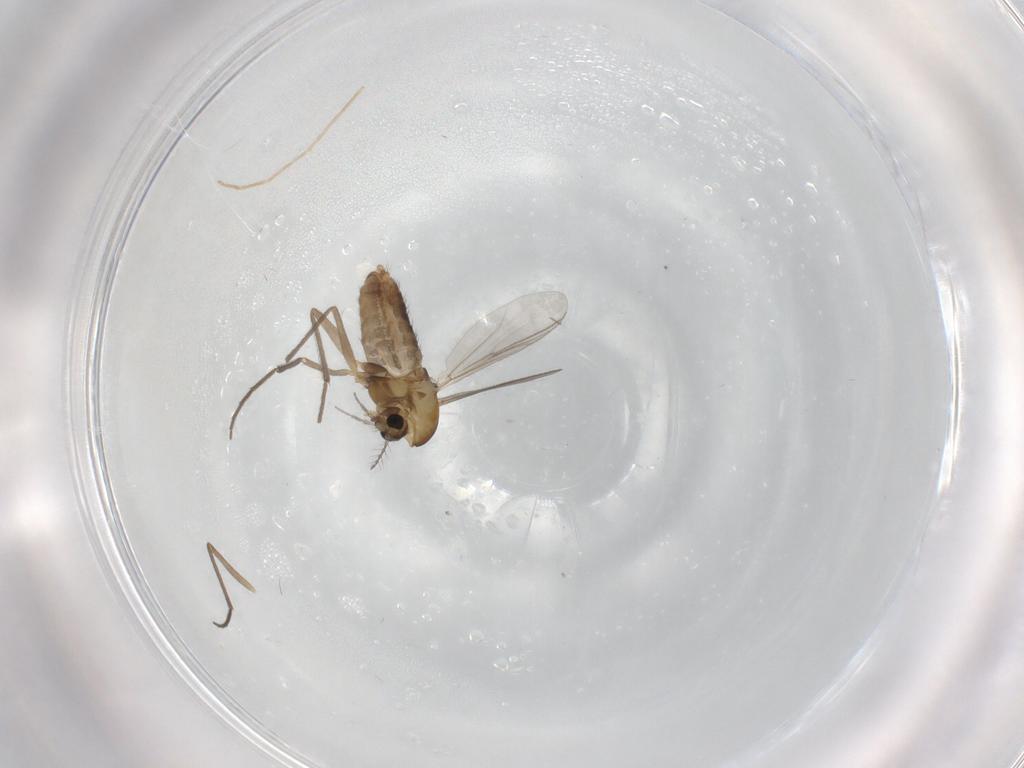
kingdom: Animalia
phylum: Arthropoda
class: Insecta
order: Diptera
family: Chironomidae
